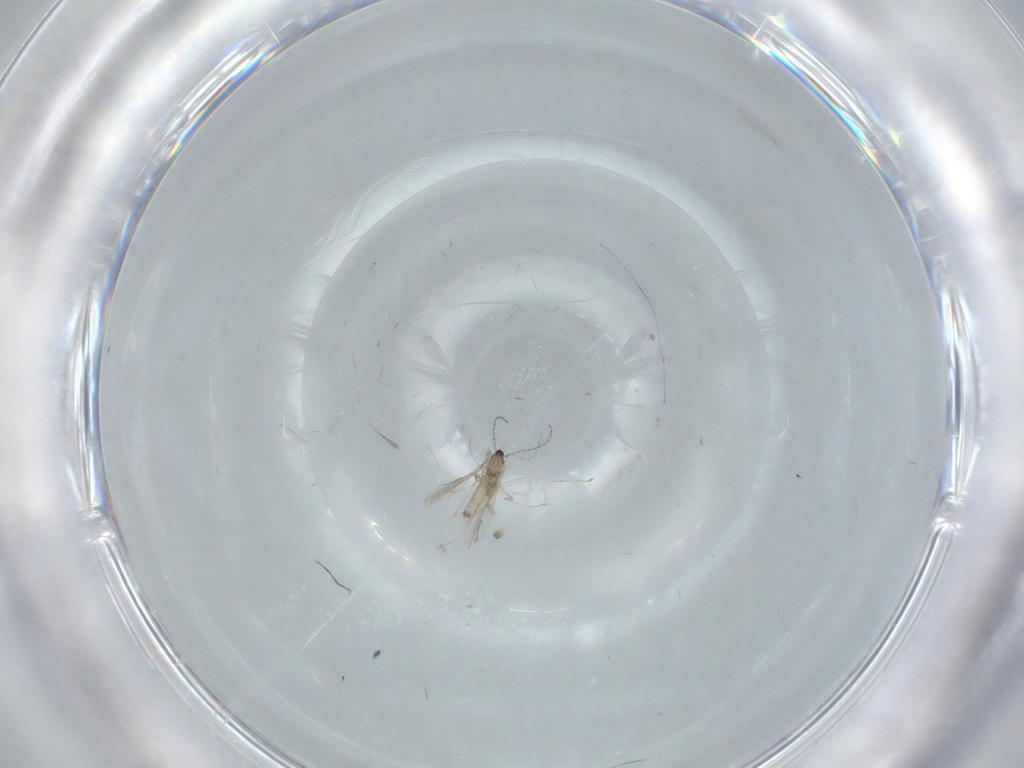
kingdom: Animalia
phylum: Arthropoda
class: Insecta
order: Diptera
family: Cecidomyiidae
